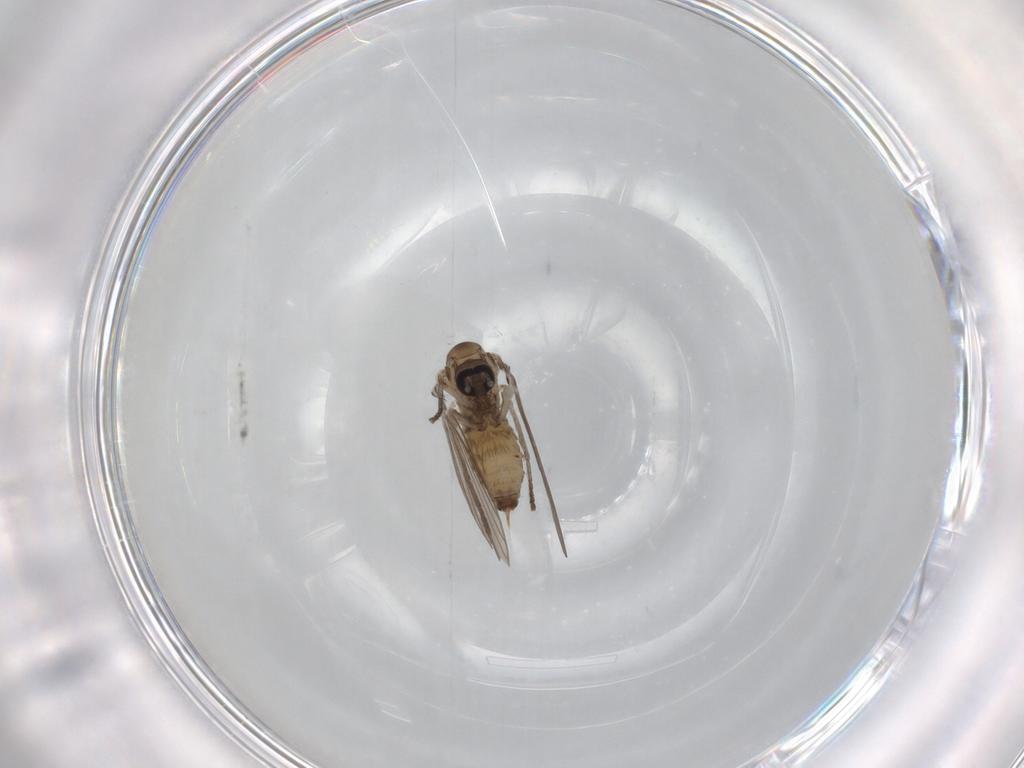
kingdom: Animalia
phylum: Arthropoda
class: Insecta
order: Diptera
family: Psychodidae
